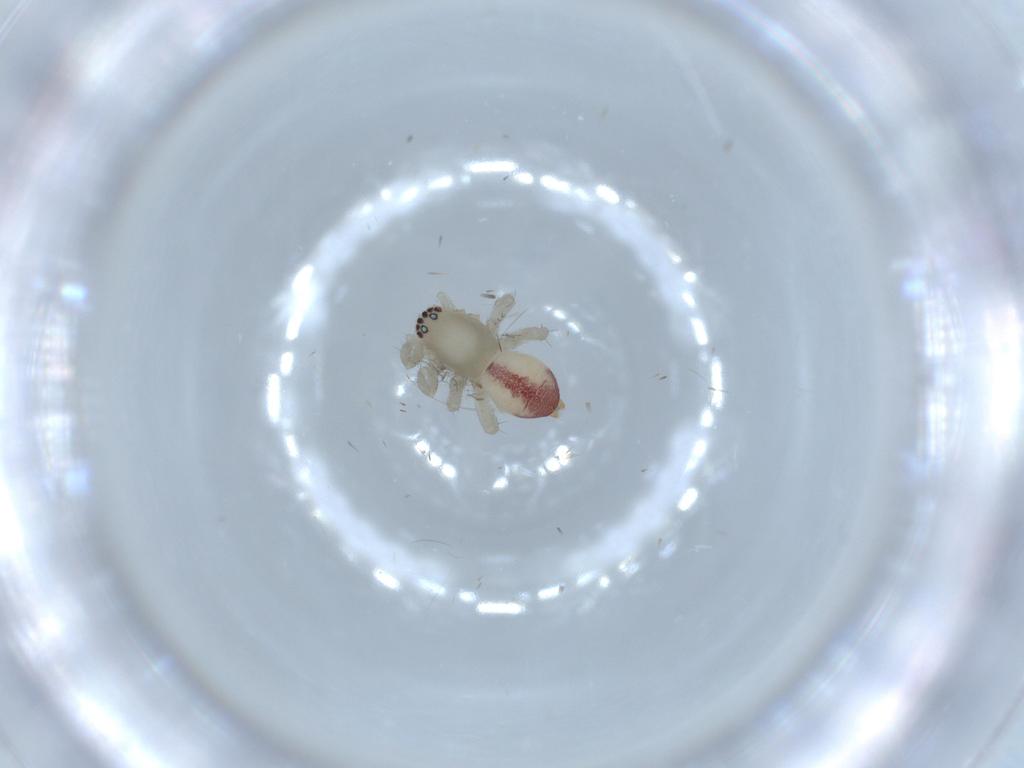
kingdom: Animalia
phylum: Arthropoda
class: Arachnida
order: Araneae
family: Clubionidae
